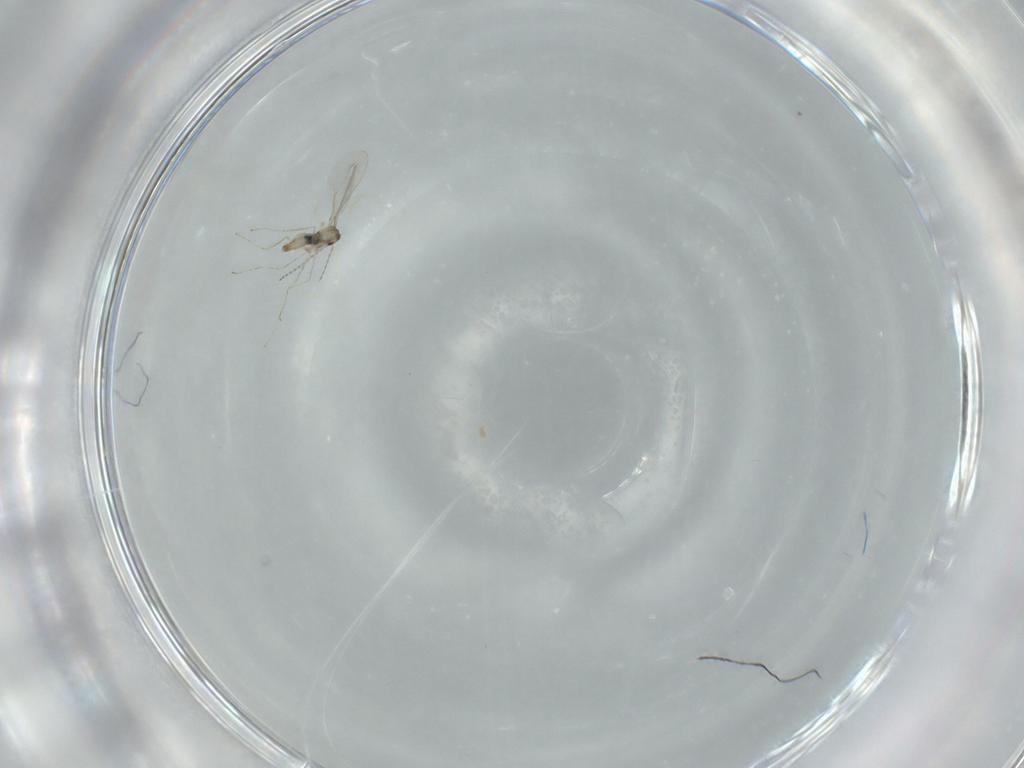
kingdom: Animalia
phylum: Arthropoda
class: Insecta
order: Diptera
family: Cecidomyiidae
